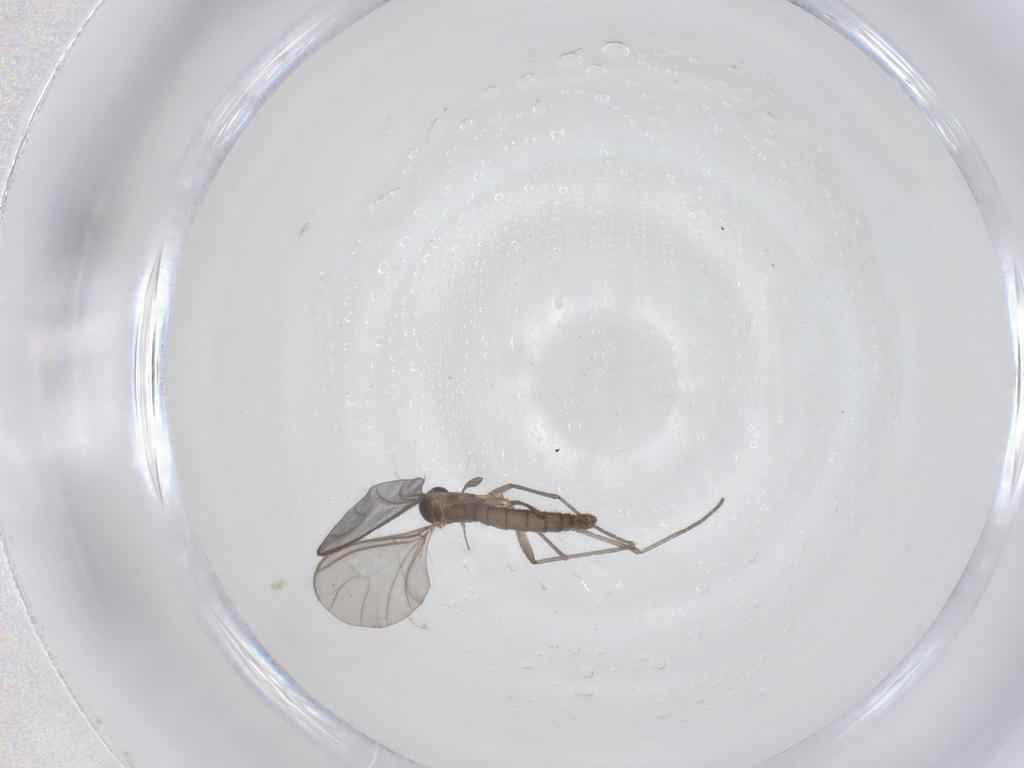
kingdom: Animalia
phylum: Arthropoda
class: Insecta
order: Diptera
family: Sciaridae
